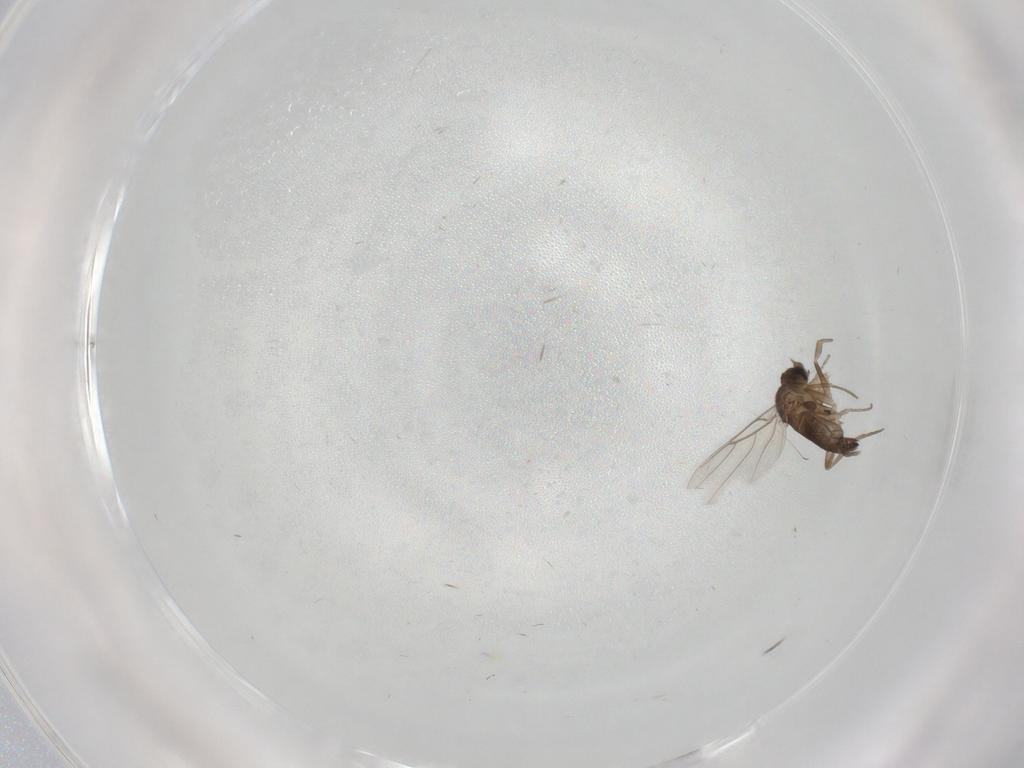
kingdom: Animalia
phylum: Arthropoda
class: Insecta
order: Diptera
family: Phoridae
